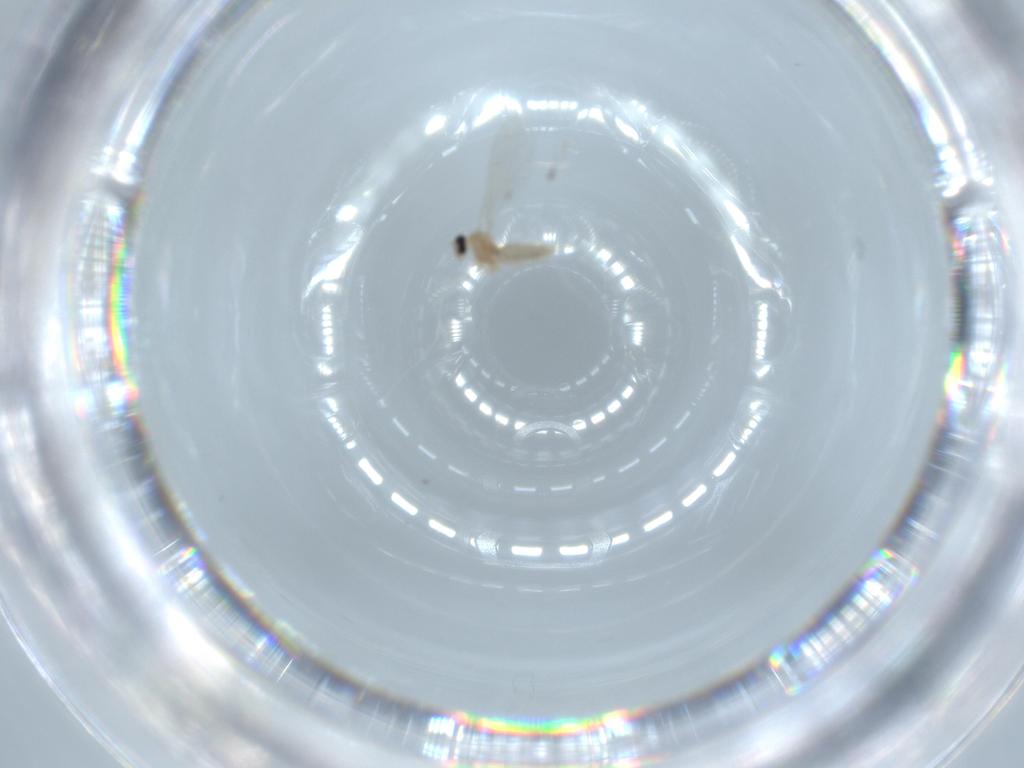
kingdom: Animalia
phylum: Arthropoda
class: Insecta
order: Diptera
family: Cecidomyiidae
